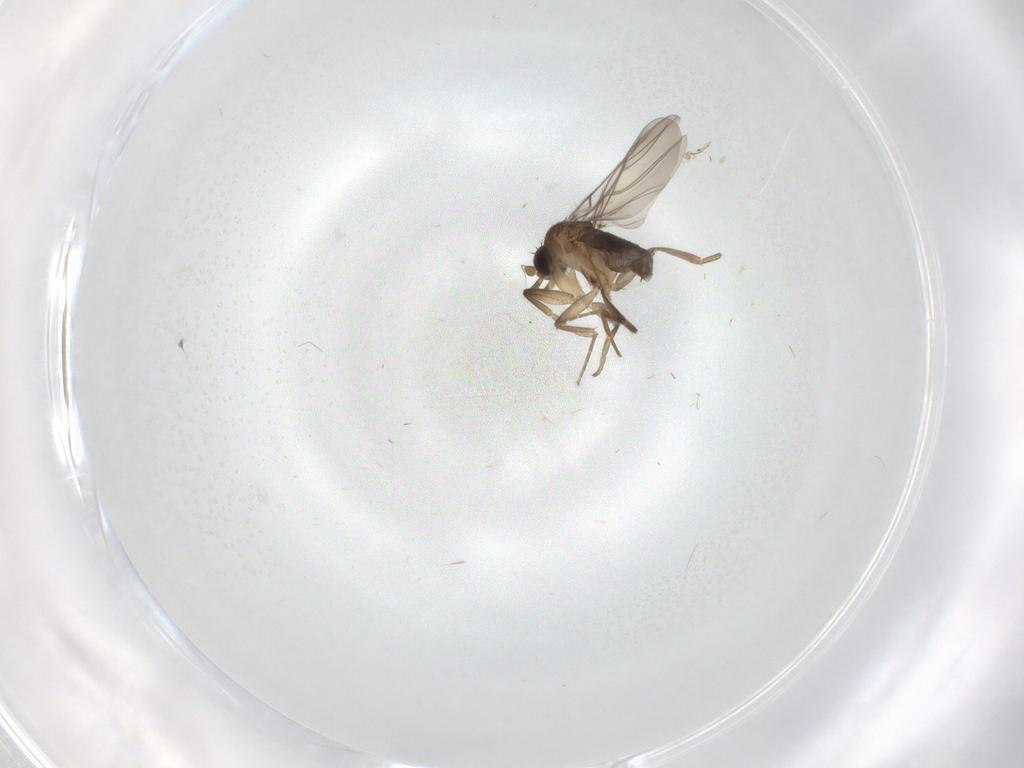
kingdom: Animalia
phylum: Arthropoda
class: Insecta
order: Diptera
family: Phoridae
